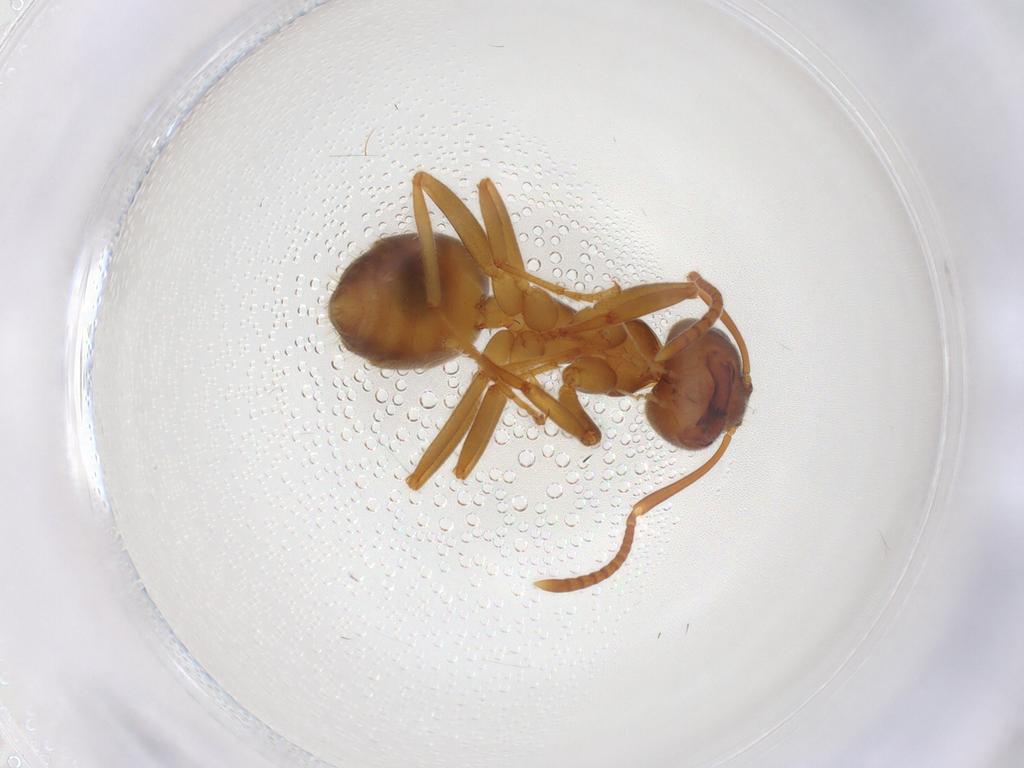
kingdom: Animalia
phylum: Arthropoda
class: Insecta
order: Hymenoptera
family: Formicidae
